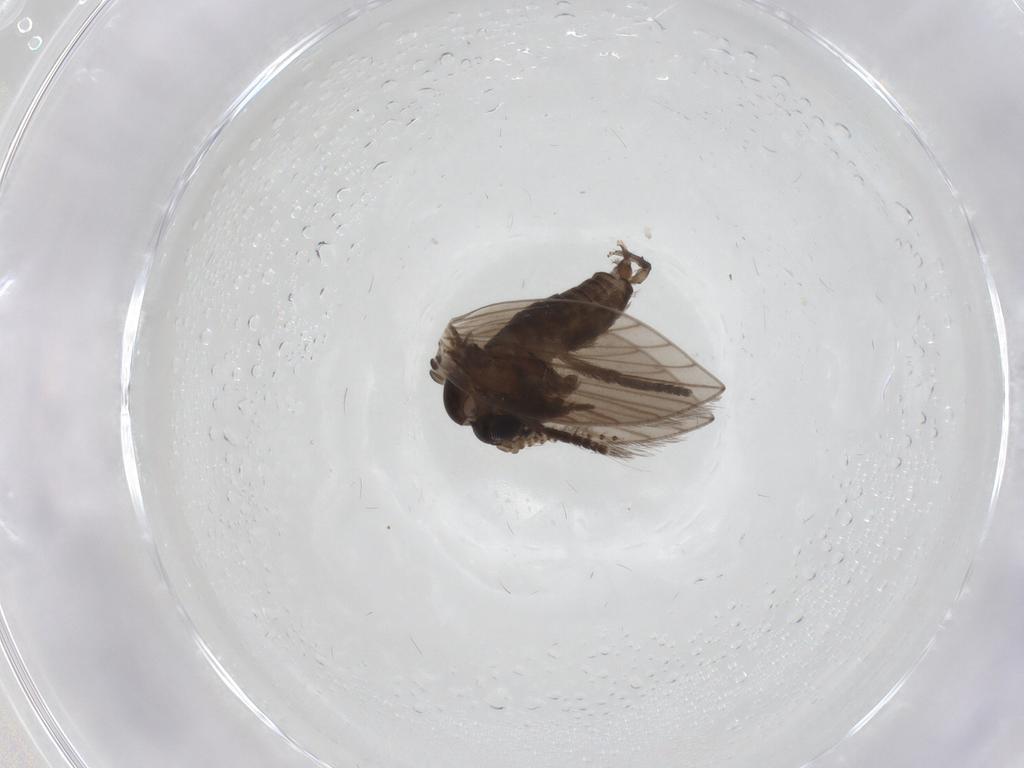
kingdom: Animalia
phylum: Arthropoda
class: Insecta
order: Diptera
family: Psychodidae
